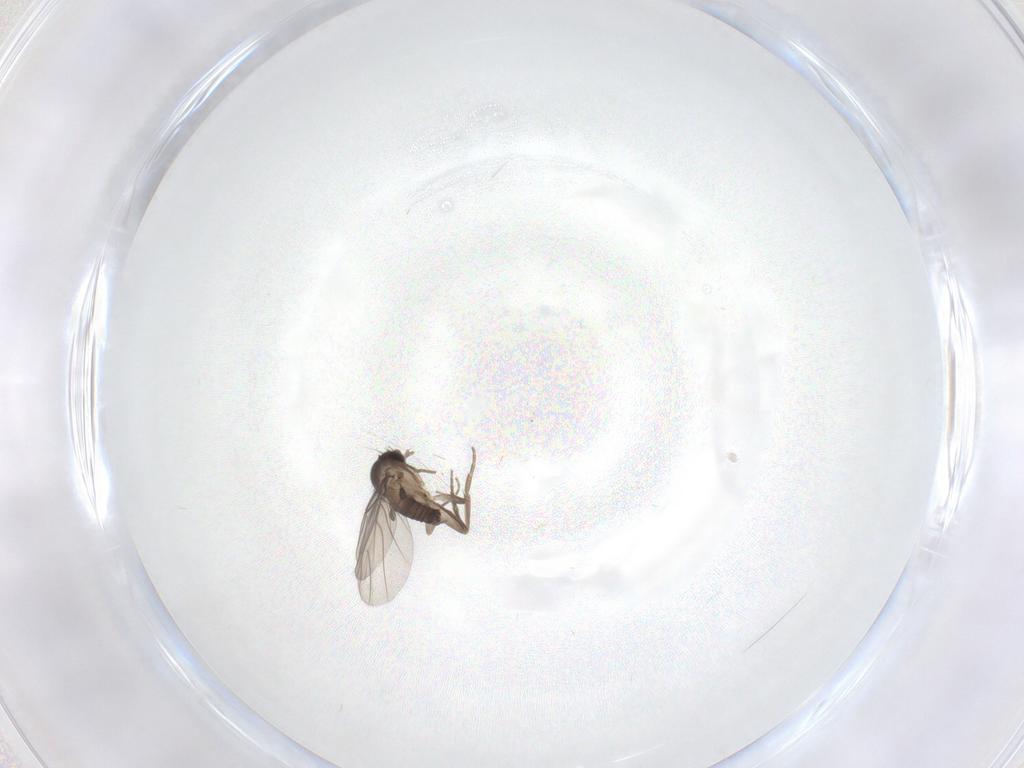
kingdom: Animalia
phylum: Arthropoda
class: Insecta
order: Diptera
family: Phoridae
